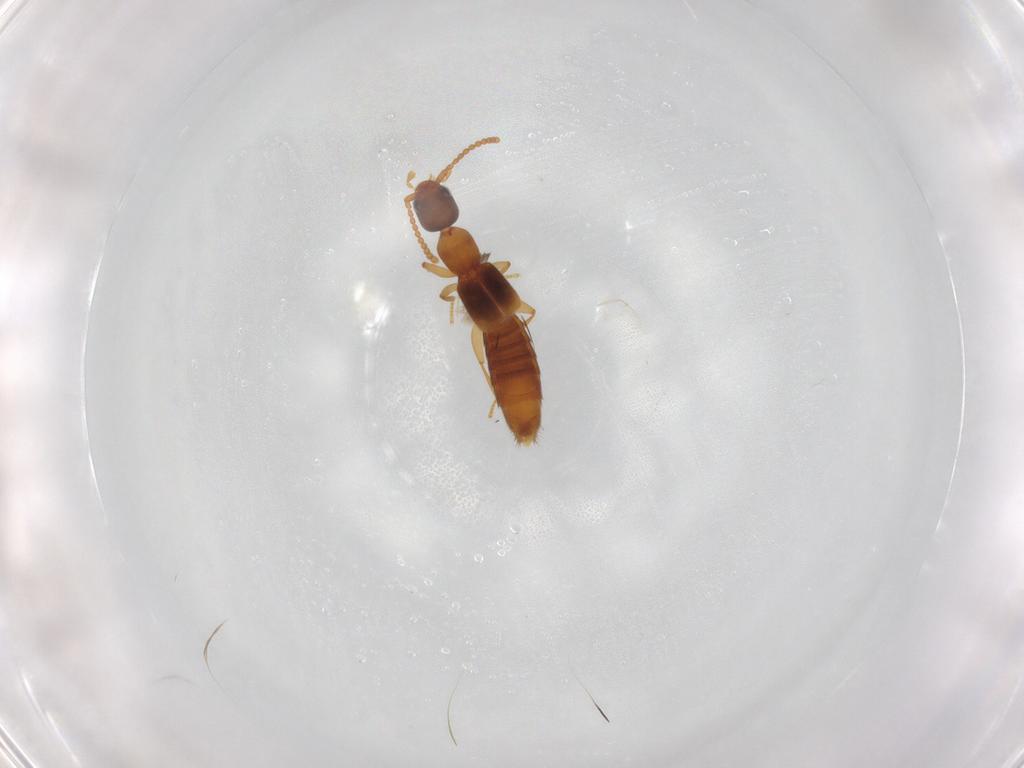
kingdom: Animalia
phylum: Arthropoda
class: Insecta
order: Coleoptera
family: Staphylinidae
